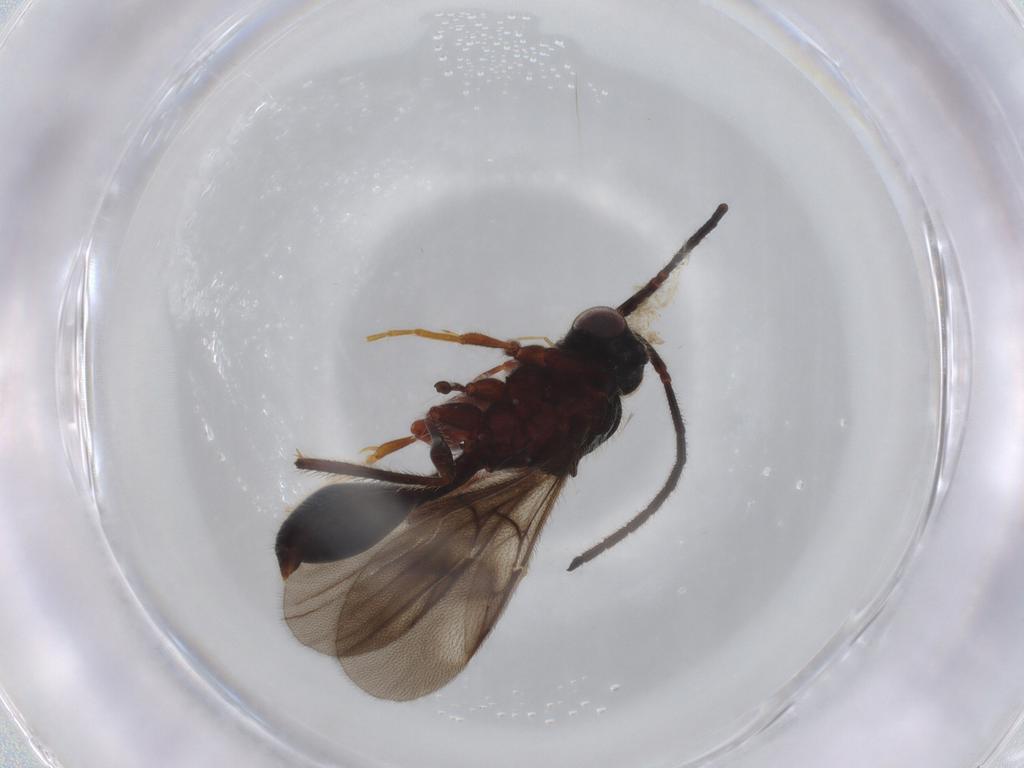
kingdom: Animalia
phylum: Arthropoda
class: Insecta
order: Hymenoptera
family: Diapriidae
